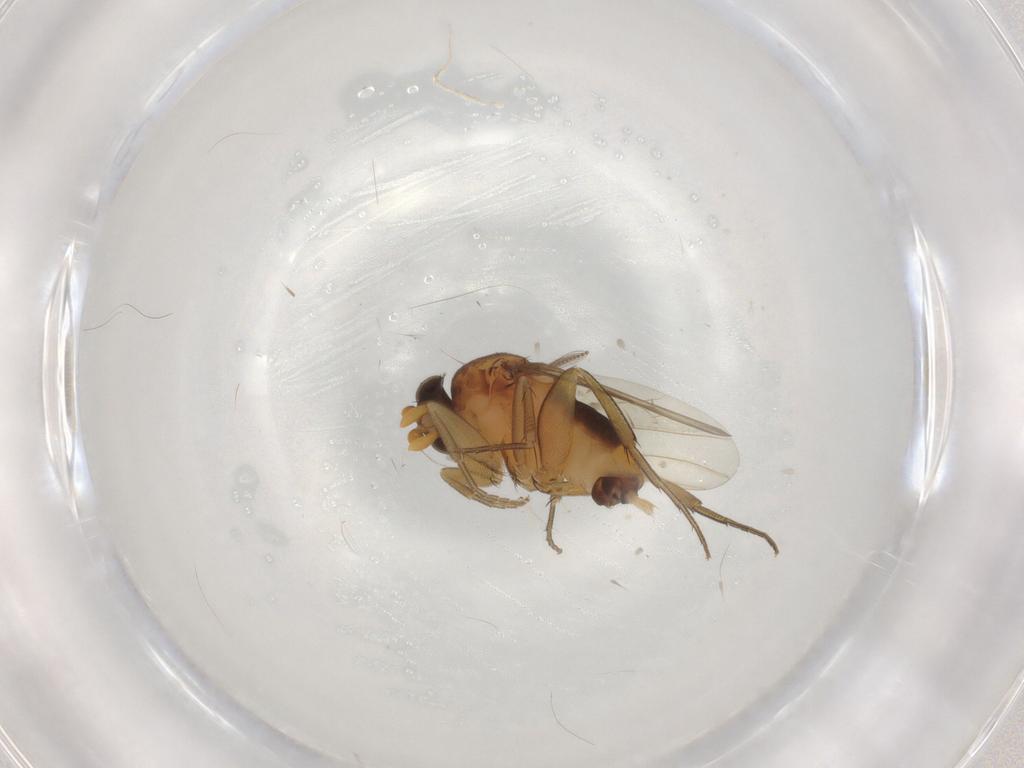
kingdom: Animalia
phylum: Arthropoda
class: Insecta
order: Diptera
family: Ceratopogonidae
